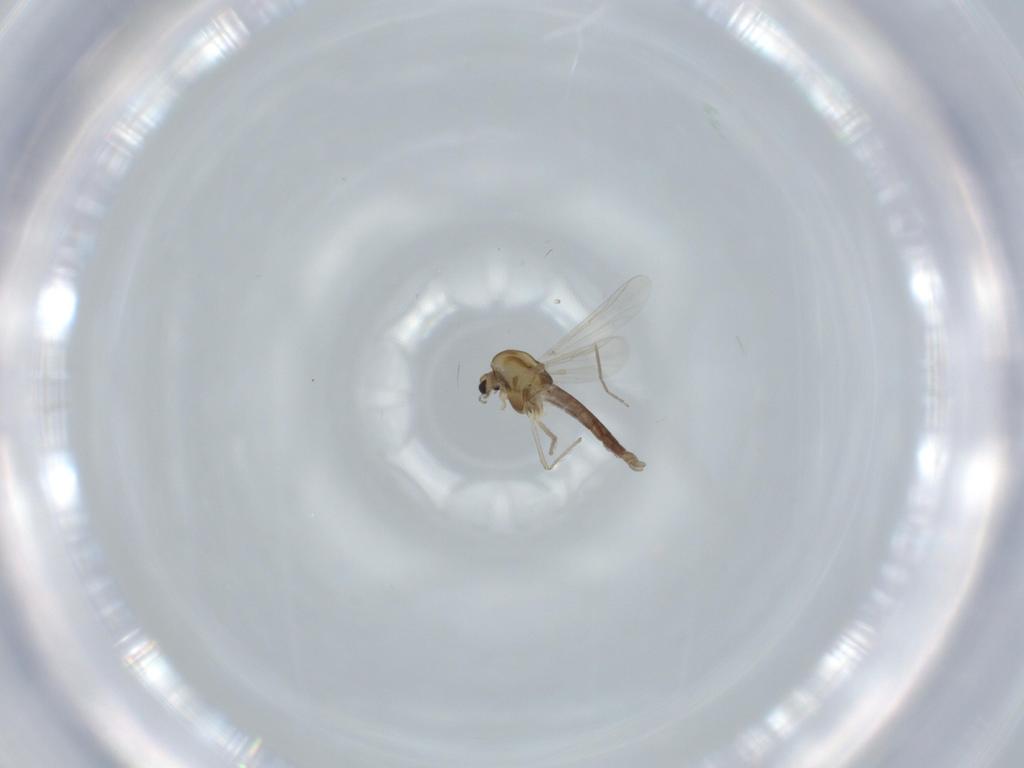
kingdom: Animalia
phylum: Arthropoda
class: Insecta
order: Diptera
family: Chironomidae
